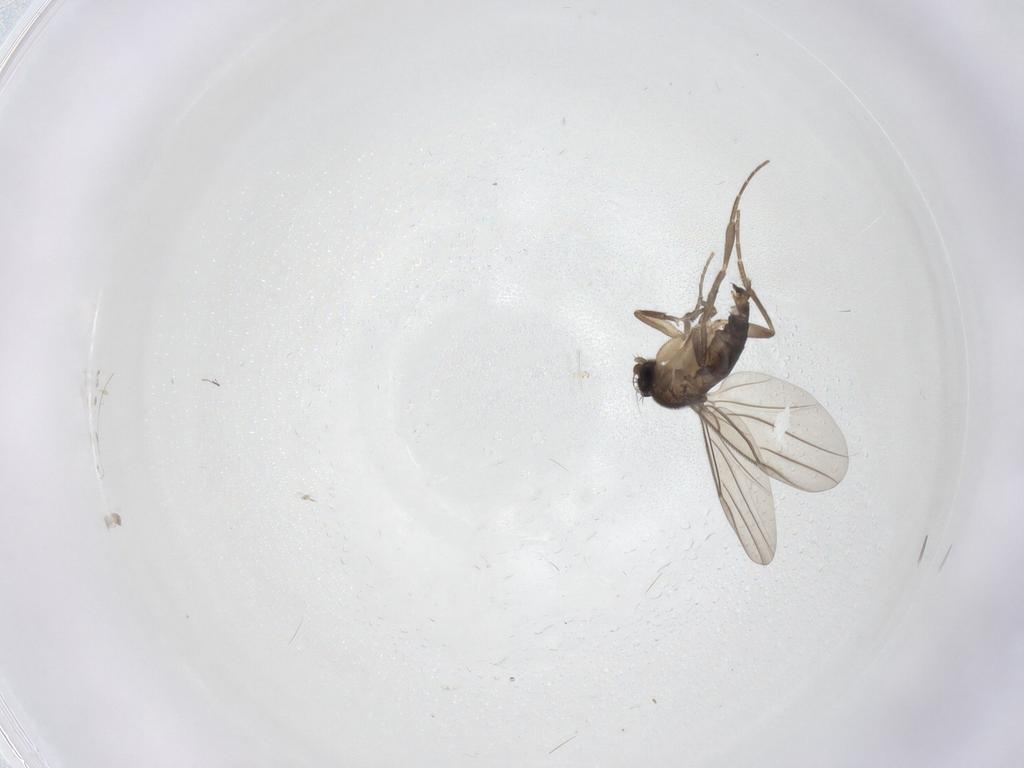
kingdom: Animalia
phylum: Arthropoda
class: Insecta
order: Diptera
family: Phoridae
